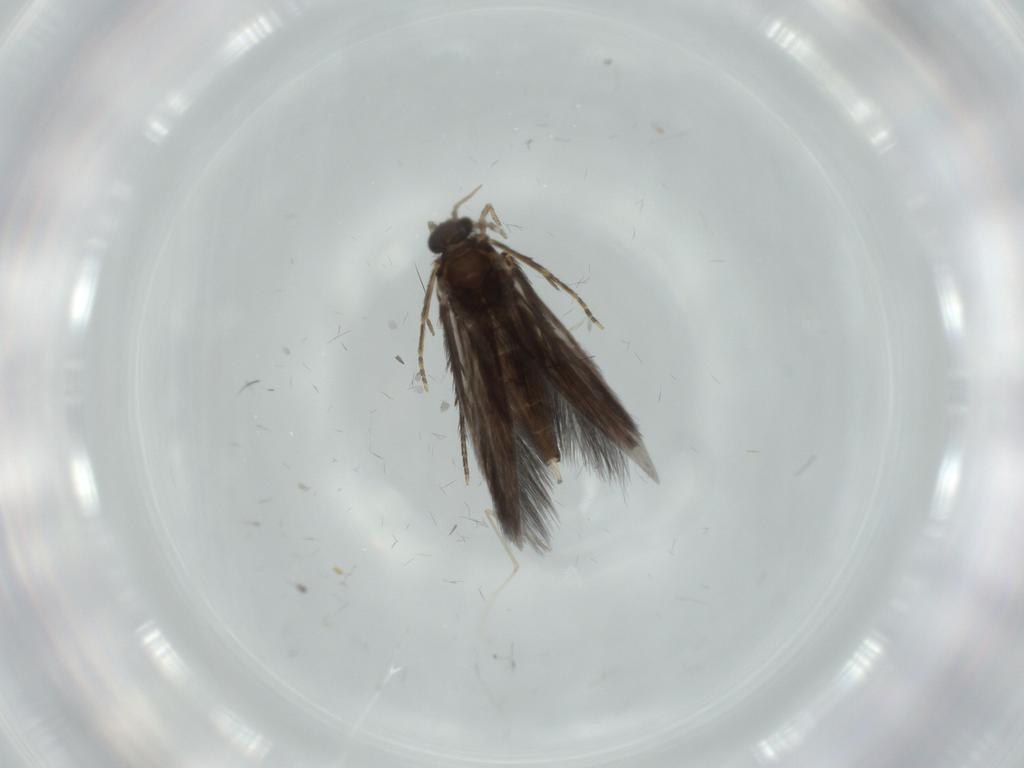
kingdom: Animalia
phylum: Arthropoda
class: Insecta
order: Trichoptera
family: Hydroptilidae
